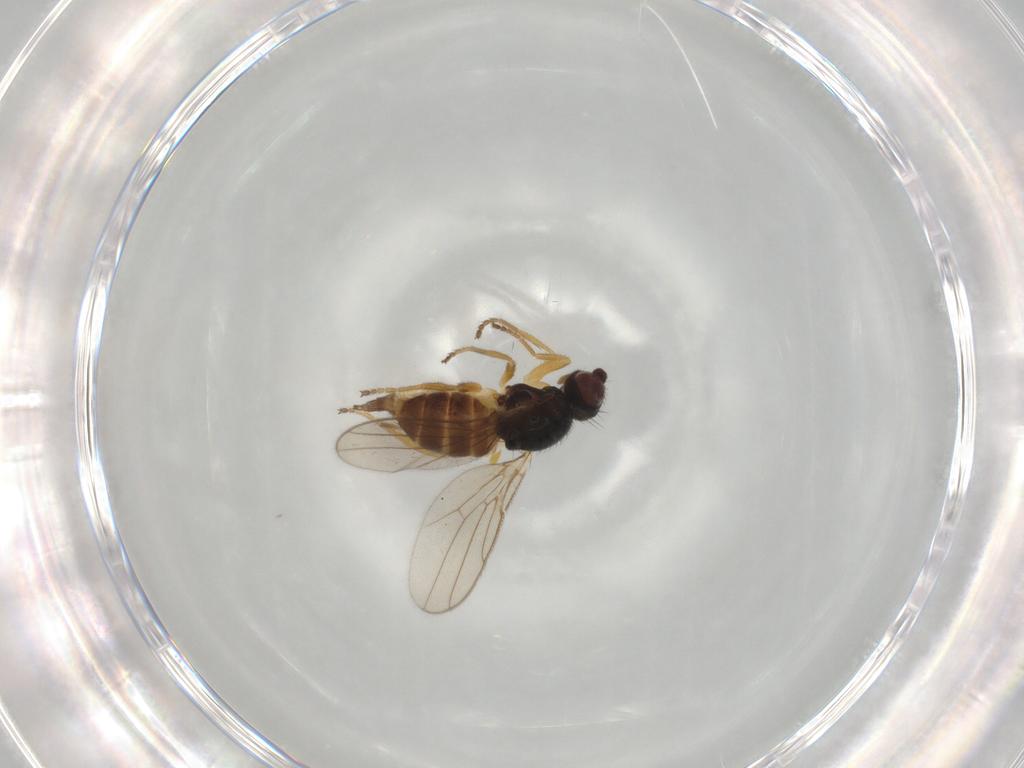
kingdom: Animalia
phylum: Arthropoda
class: Insecta
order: Diptera
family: Chloropidae
